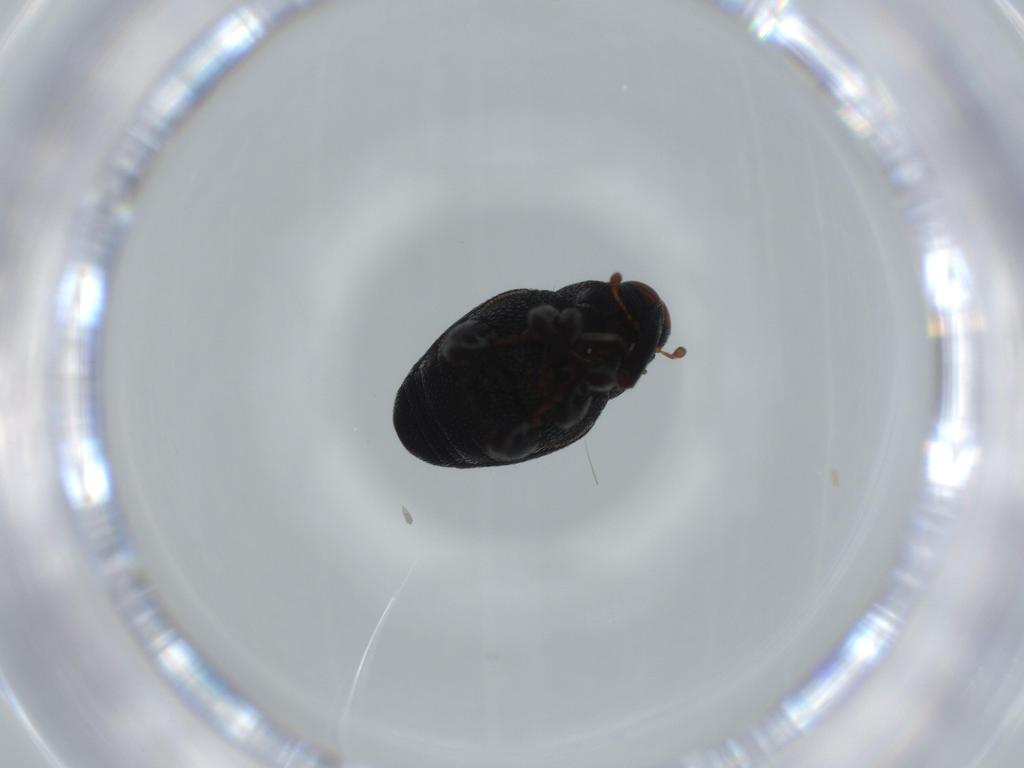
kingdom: Animalia
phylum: Arthropoda
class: Insecta
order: Coleoptera
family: Curculionidae
